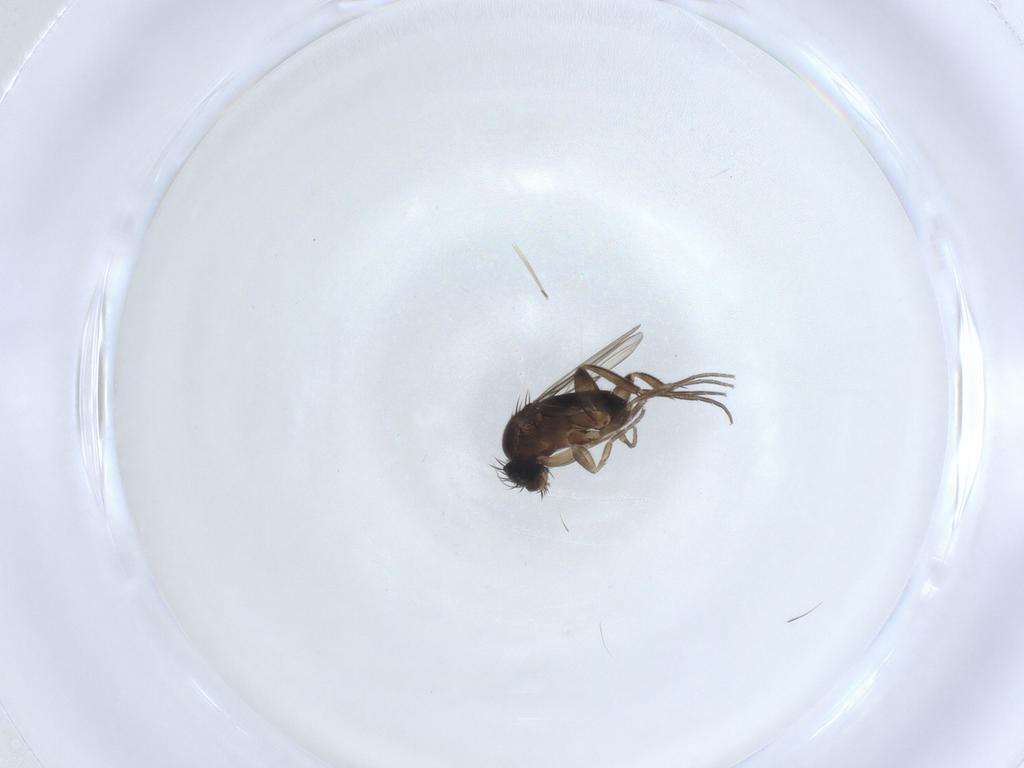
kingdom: Animalia
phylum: Arthropoda
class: Insecta
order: Diptera
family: Phoridae
